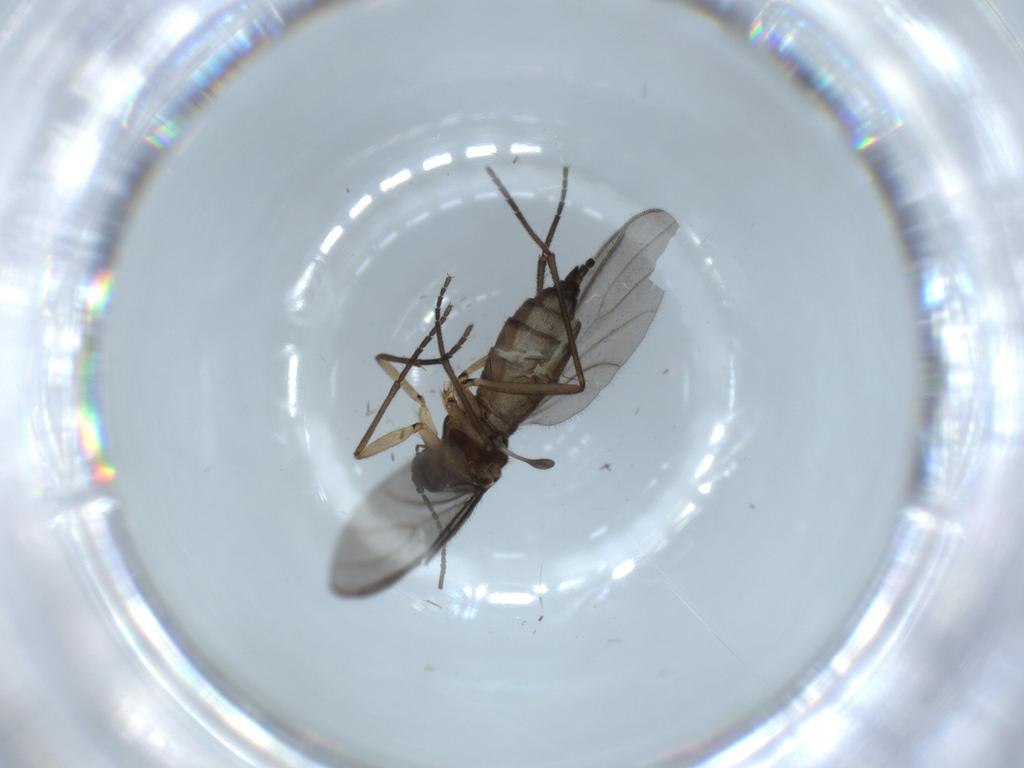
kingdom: Animalia
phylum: Arthropoda
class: Insecta
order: Diptera
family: Sciaridae
